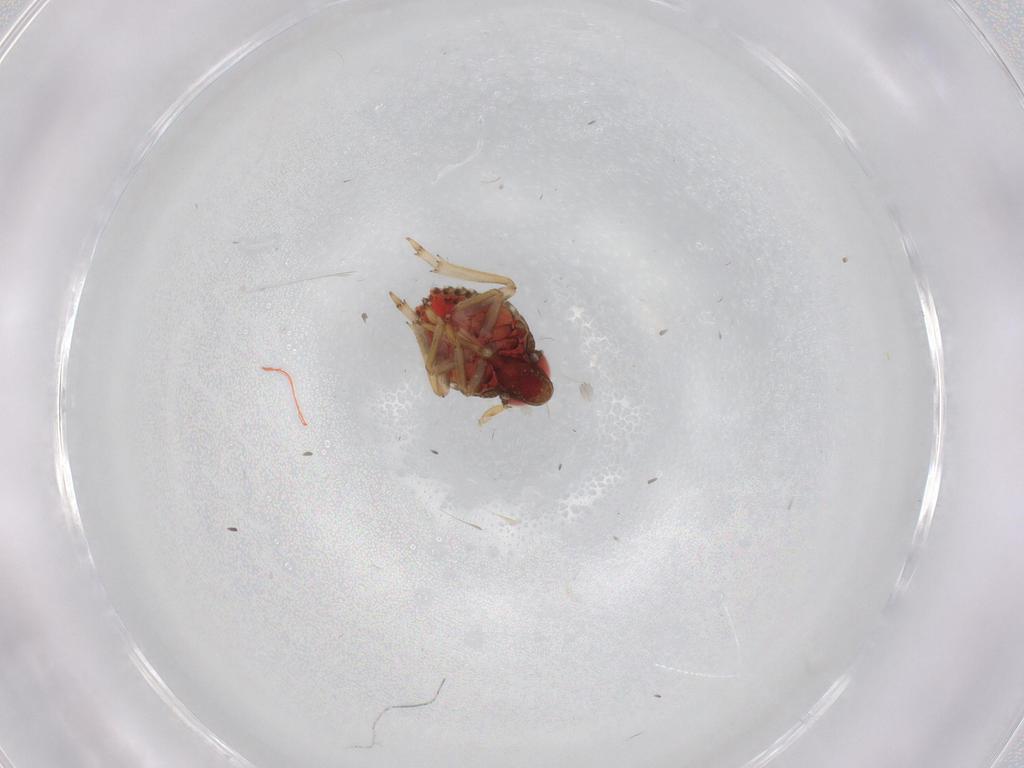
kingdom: Animalia
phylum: Arthropoda
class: Insecta
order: Hemiptera
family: Issidae
